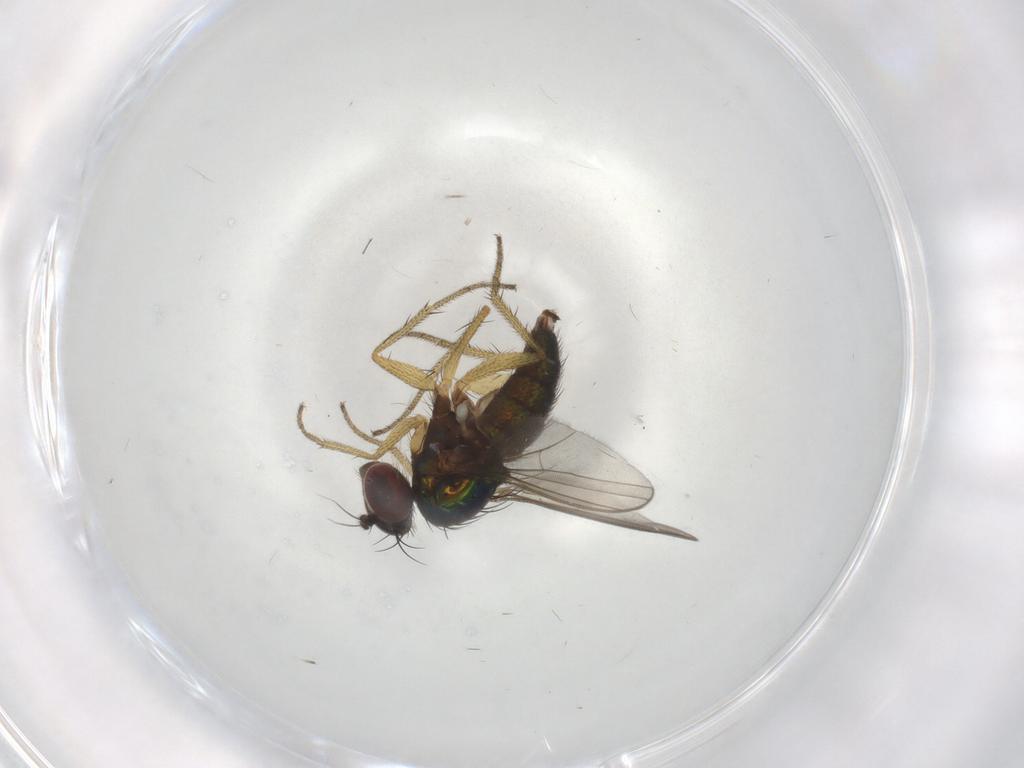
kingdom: Animalia
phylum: Arthropoda
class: Insecta
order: Diptera
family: Dolichopodidae
